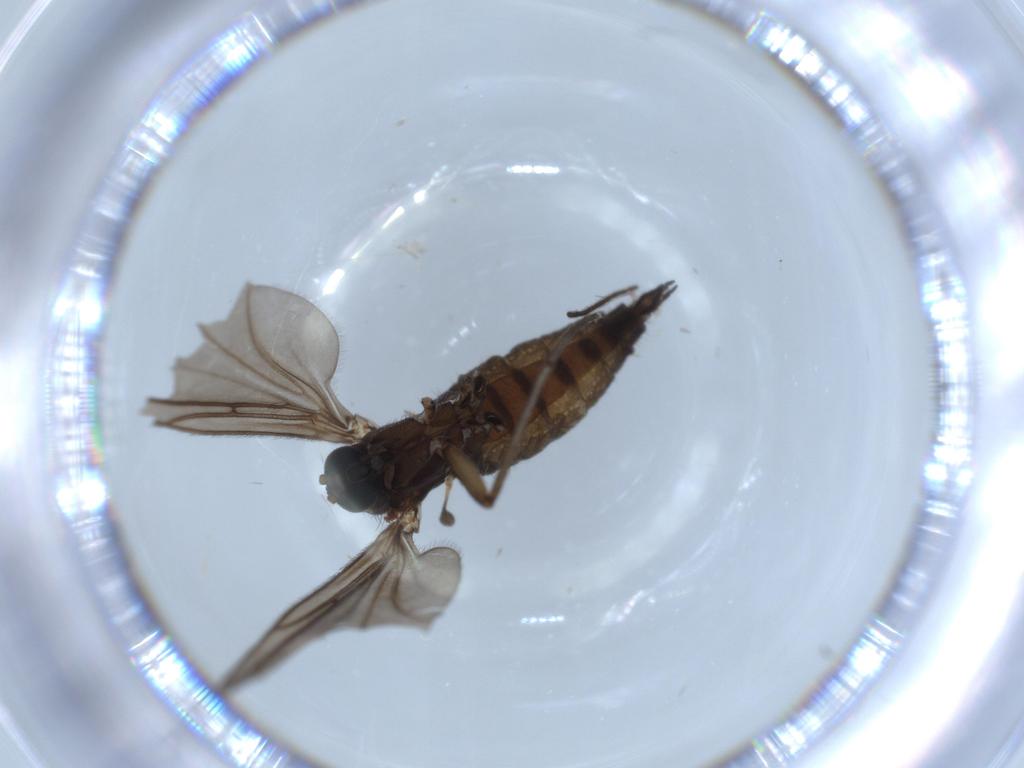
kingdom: Animalia
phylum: Arthropoda
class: Insecta
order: Diptera
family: Sciaridae
